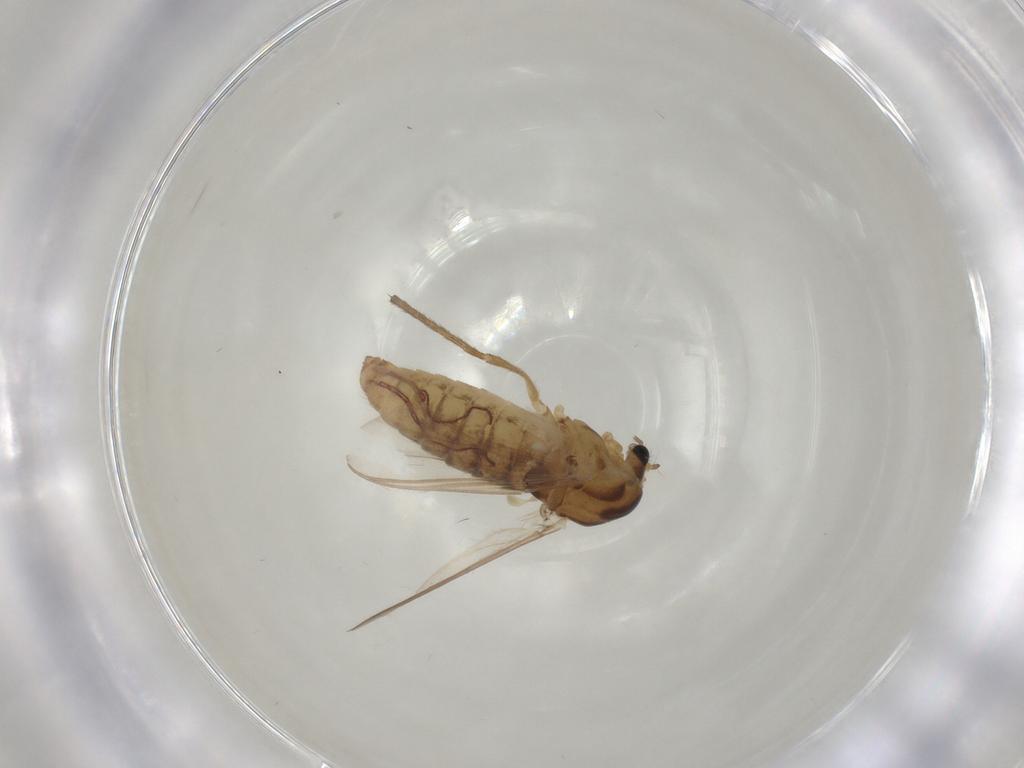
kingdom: Animalia
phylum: Arthropoda
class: Insecta
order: Diptera
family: Chironomidae
